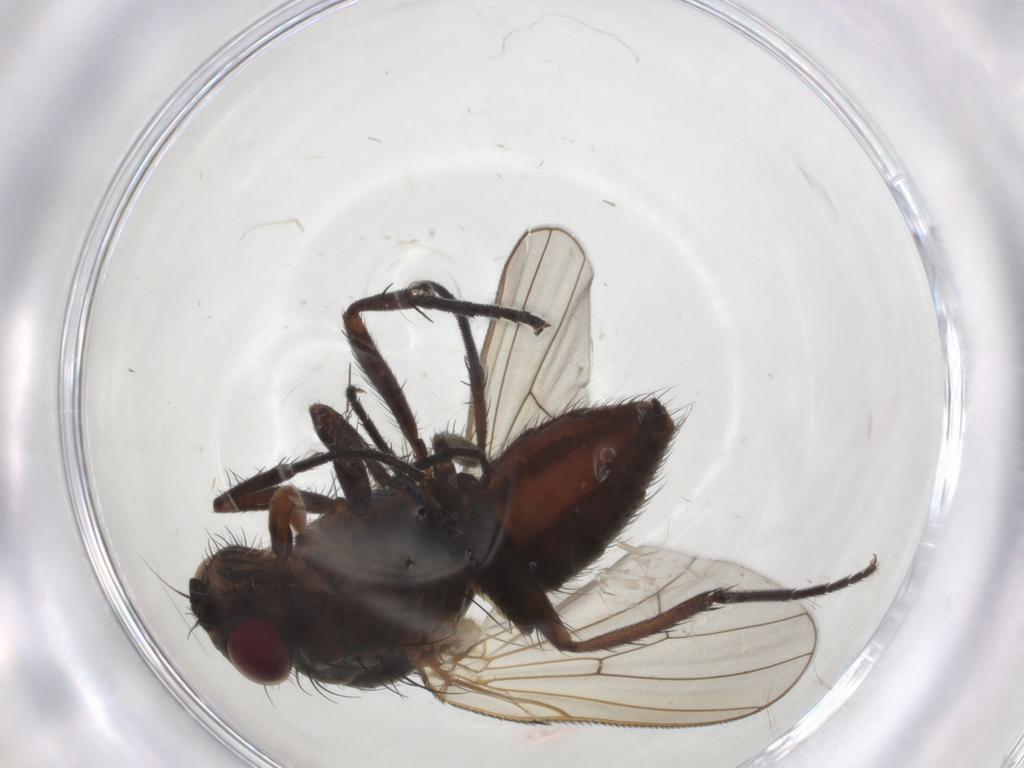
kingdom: Animalia
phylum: Arthropoda
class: Insecta
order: Diptera
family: Anthomyiidae
